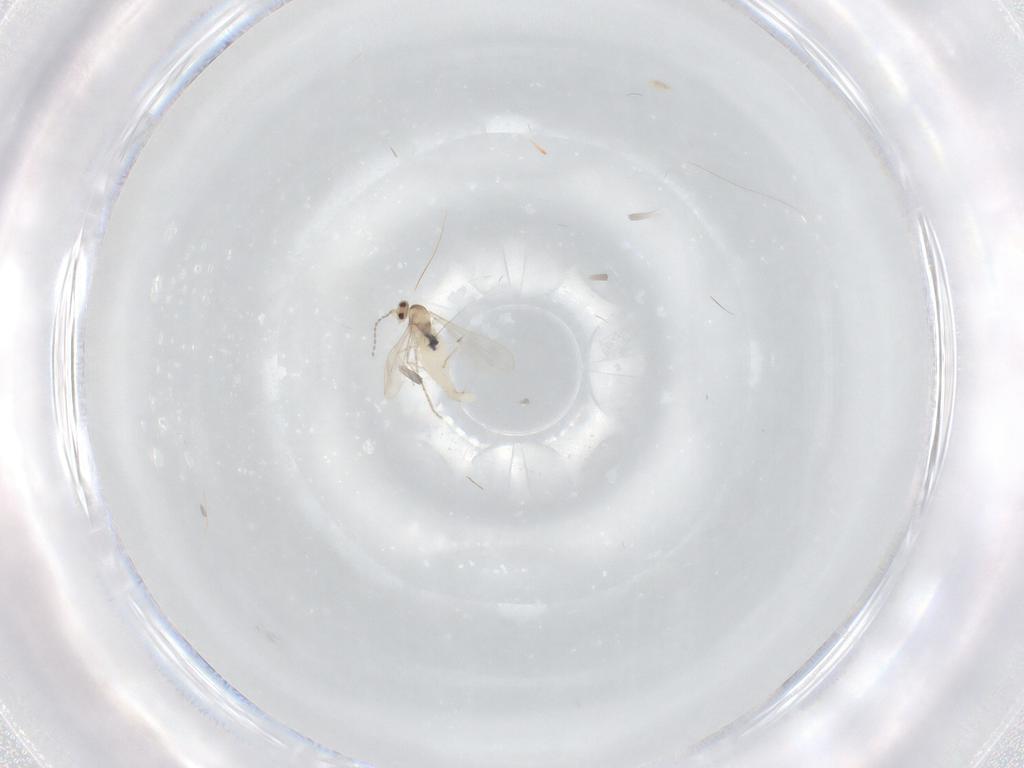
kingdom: Animalia
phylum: Arthropoda
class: Insecta
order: Diptera
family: Cecidomyiidae
